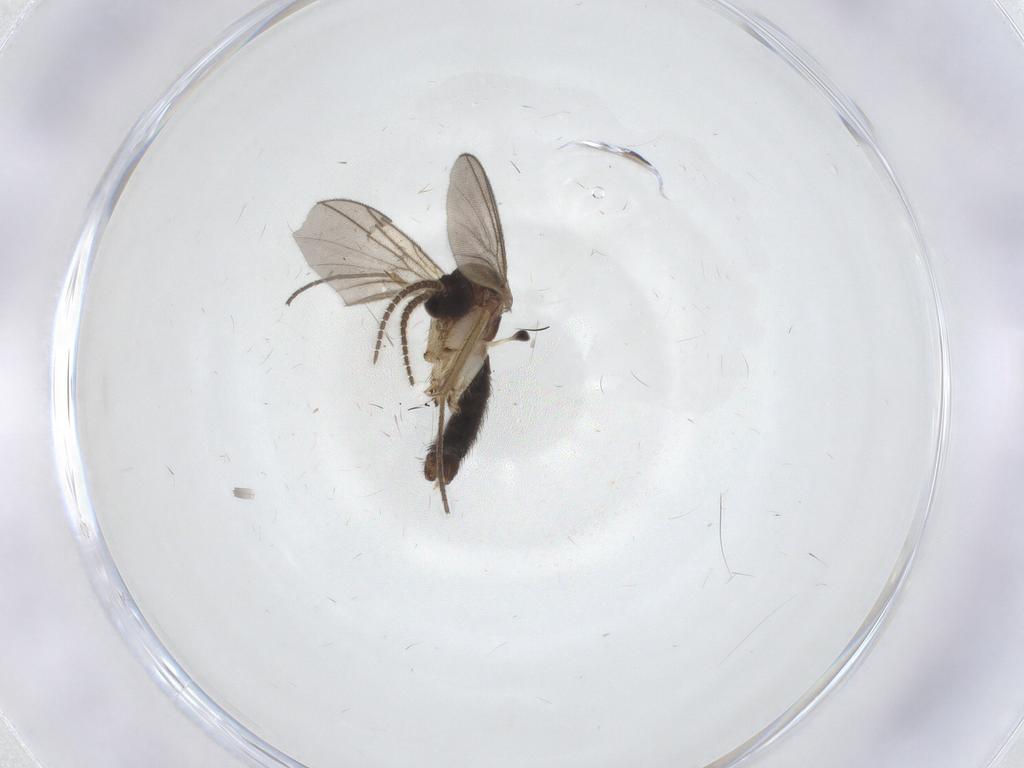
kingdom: Animalia
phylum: Arthropoda
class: Insecta
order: Diptera
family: Mycetophilidae
